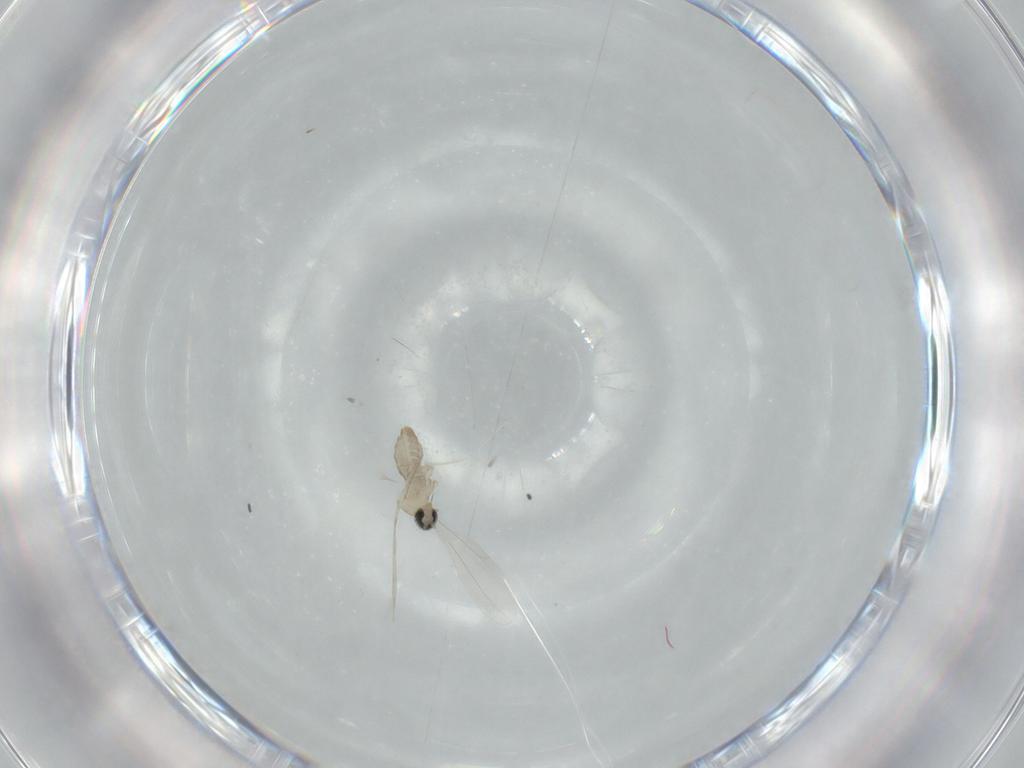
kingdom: Animalia
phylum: Arthropoda
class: Insecta
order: Diptera
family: Cecidomyiidae
